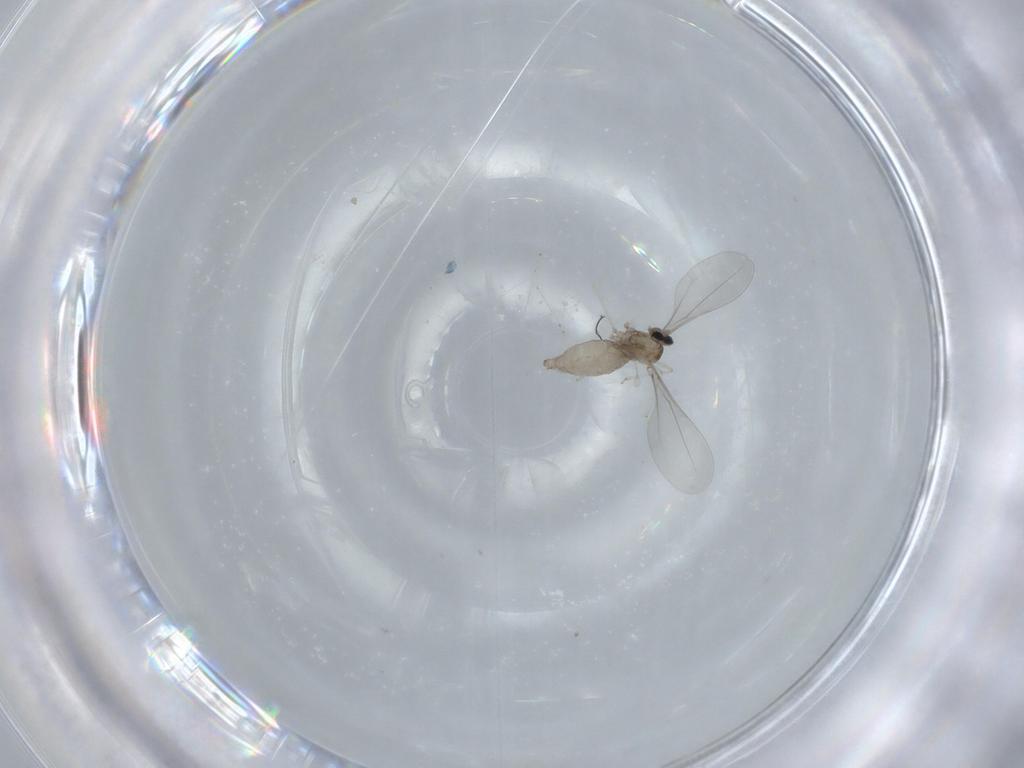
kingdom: Animalia
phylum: Arthropoda
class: Insecta
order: Diptera
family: Cecidomyiidae
